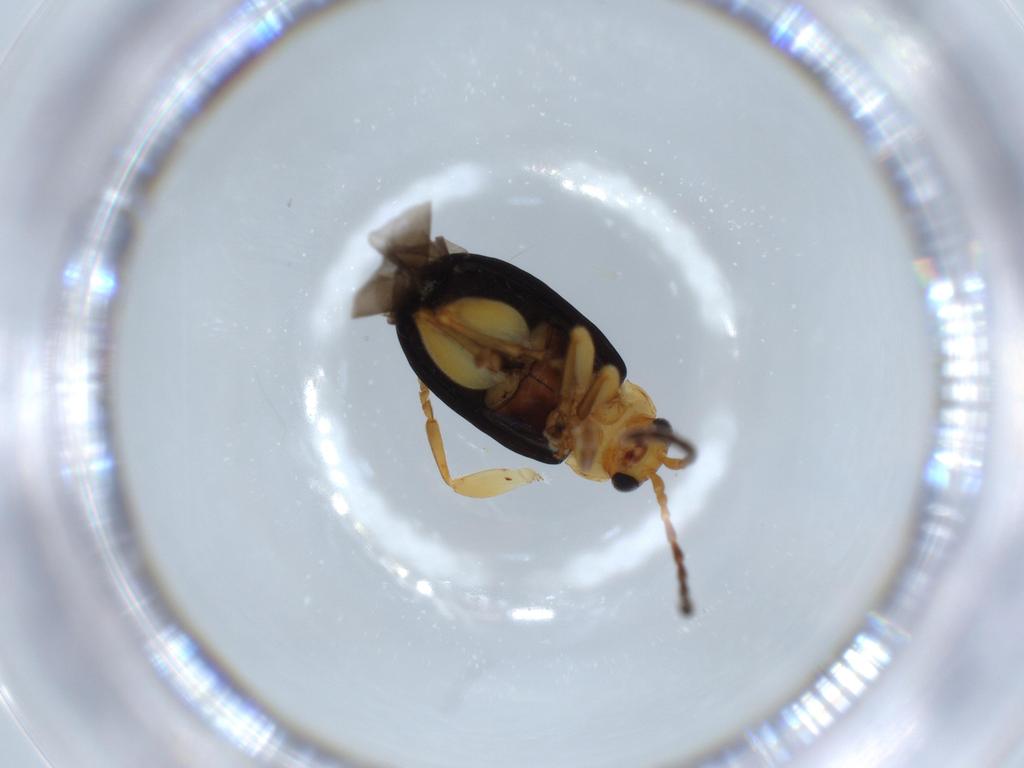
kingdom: Animalia
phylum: Arthropoda
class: Insecta
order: Coleoptera
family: Chrysomelidae
